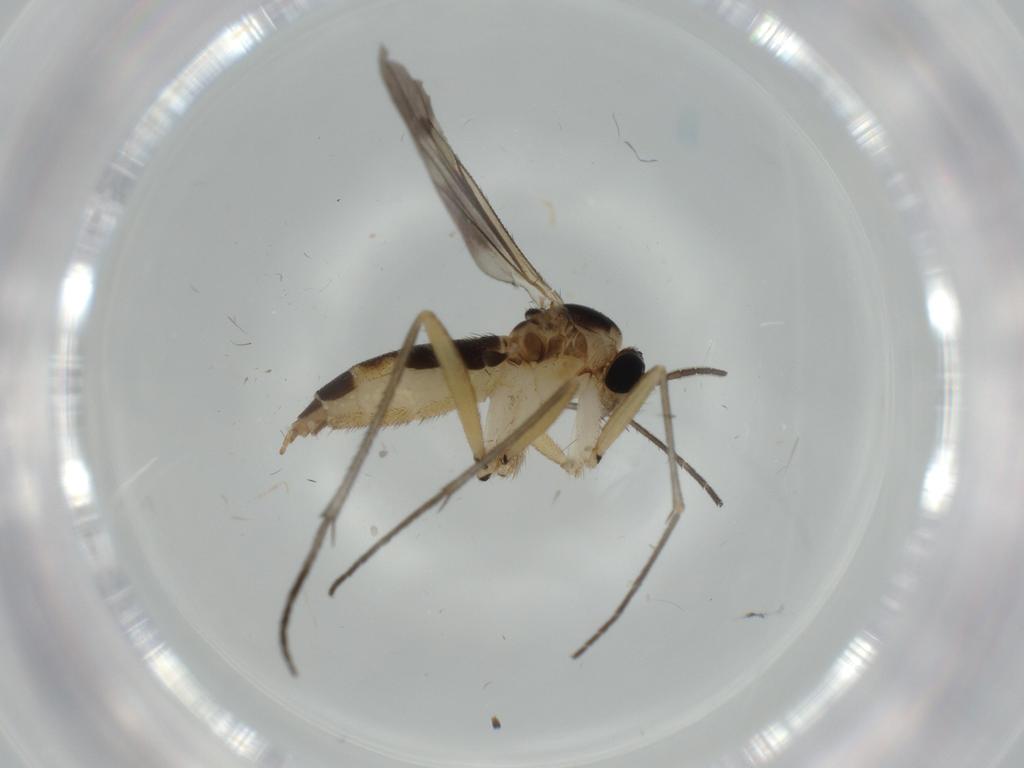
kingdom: Animalia
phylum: Arthropoda
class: Insecta
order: Diptera
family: Sciaridae
